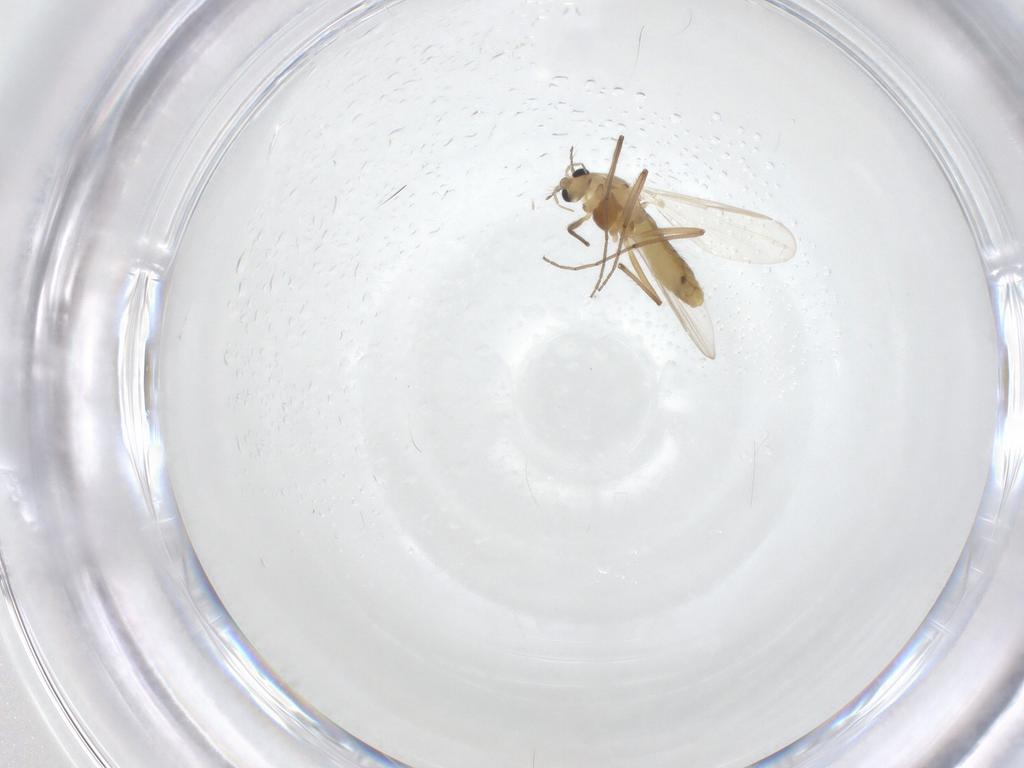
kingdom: Animalia
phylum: Arthropoda
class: Insecta
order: Diptera
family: Chironomidae
